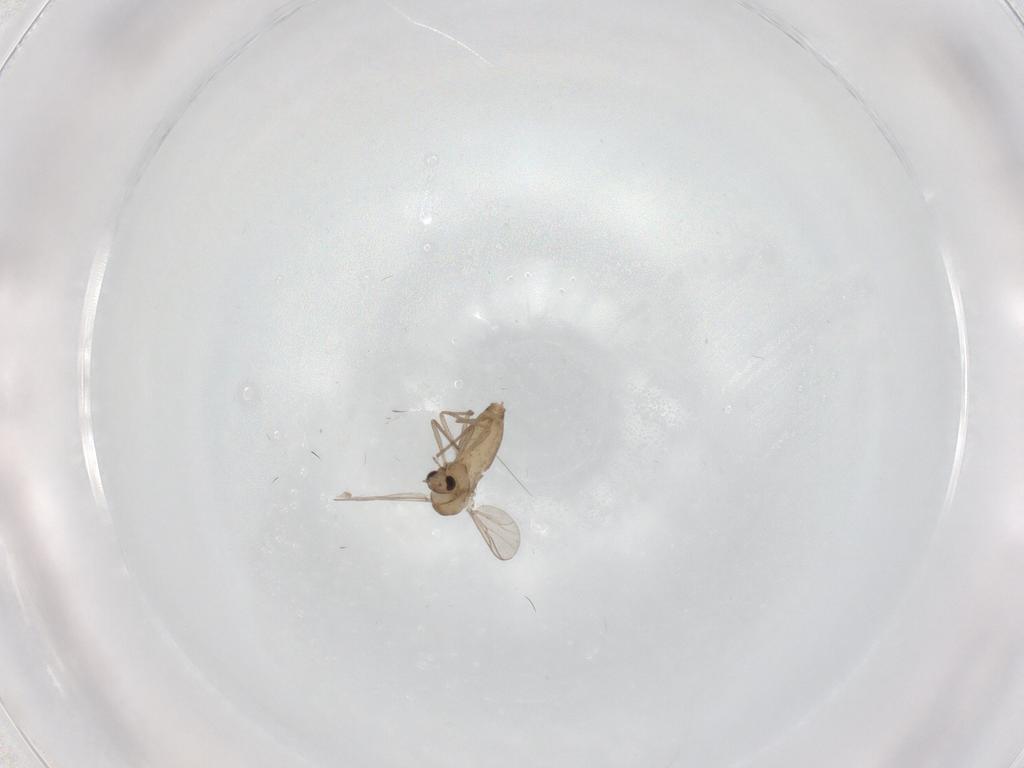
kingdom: Animalia
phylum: Arthropoda
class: Insecta
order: Diptera
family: Chironomidae
